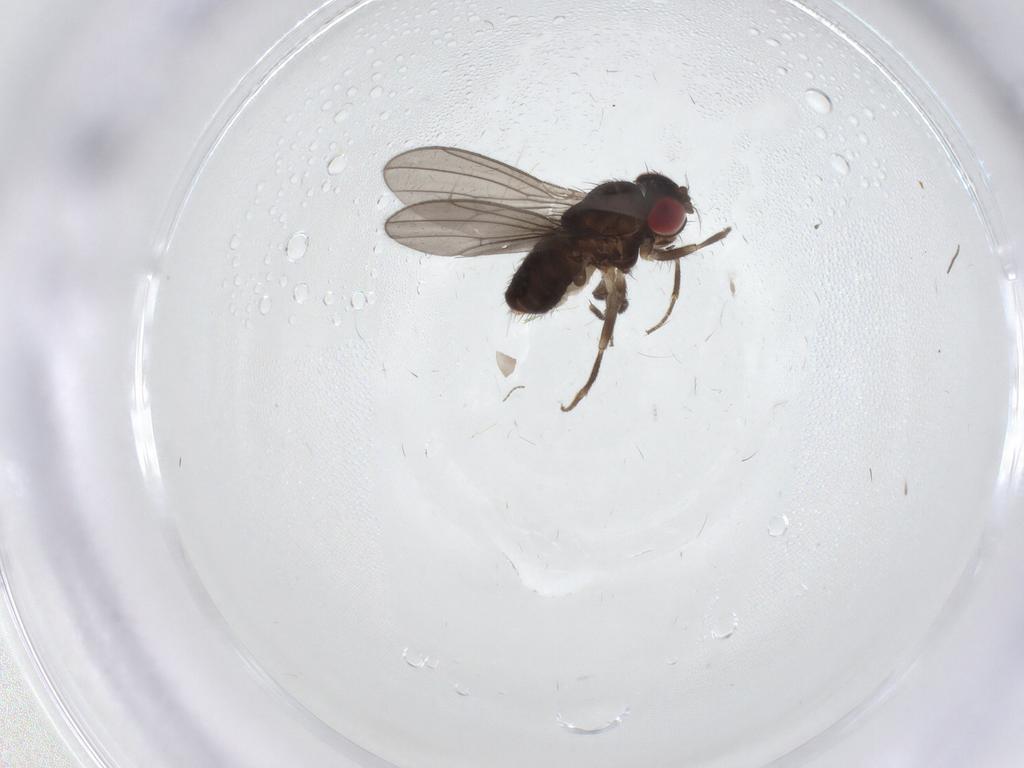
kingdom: Animalia
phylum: Arthropoda
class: Insecta
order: Diptera
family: Drosophilidae
